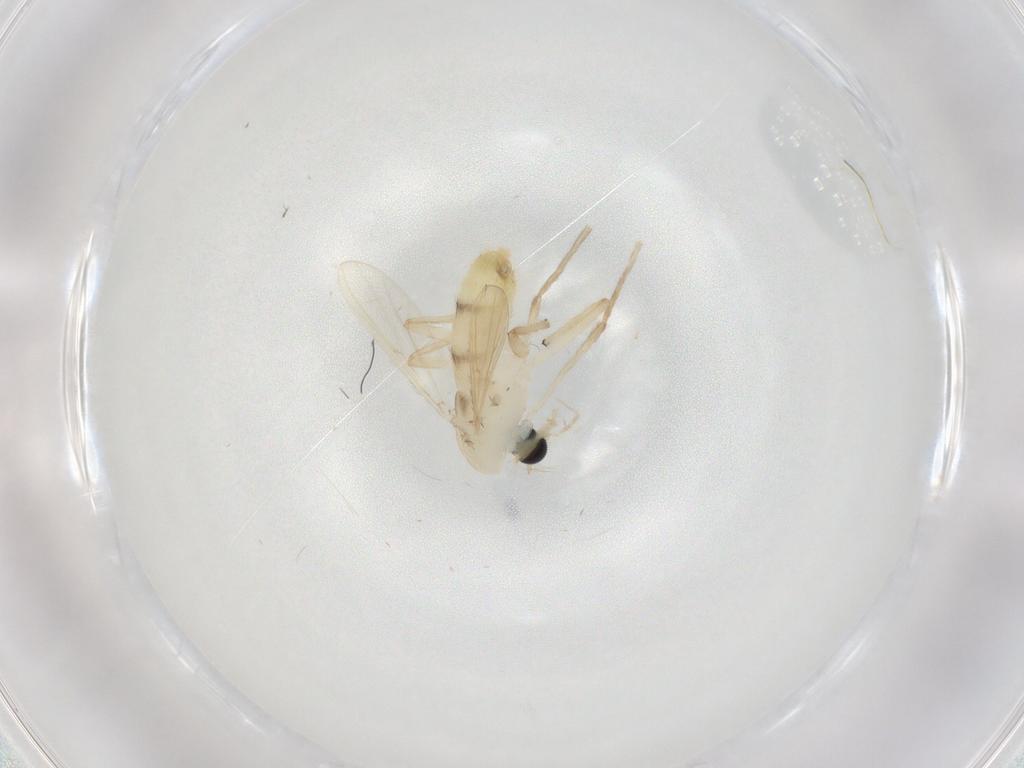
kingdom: Animalia
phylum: Arthropoda
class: Insecta
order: Diptera
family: Chironomidae
